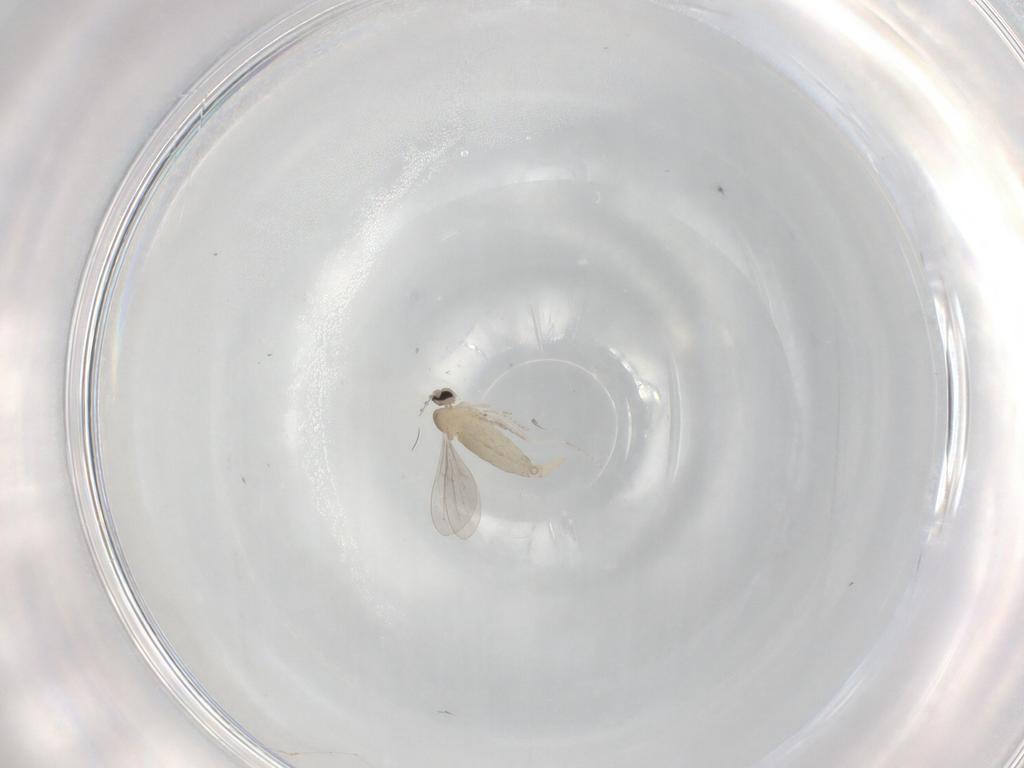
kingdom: Animalia
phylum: Arthropoda
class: Insecta
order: Diptera
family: Cecidomyiidae
